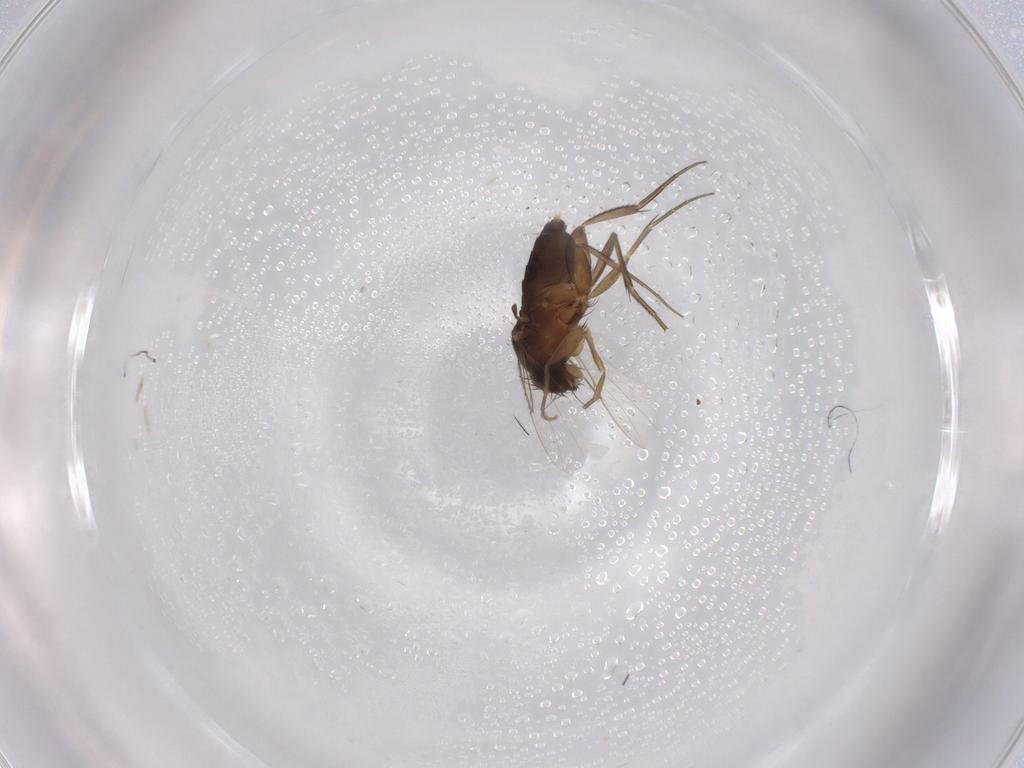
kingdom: Animalia
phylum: Arthropoda
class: Insecta
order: Diptera
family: Phoridae
